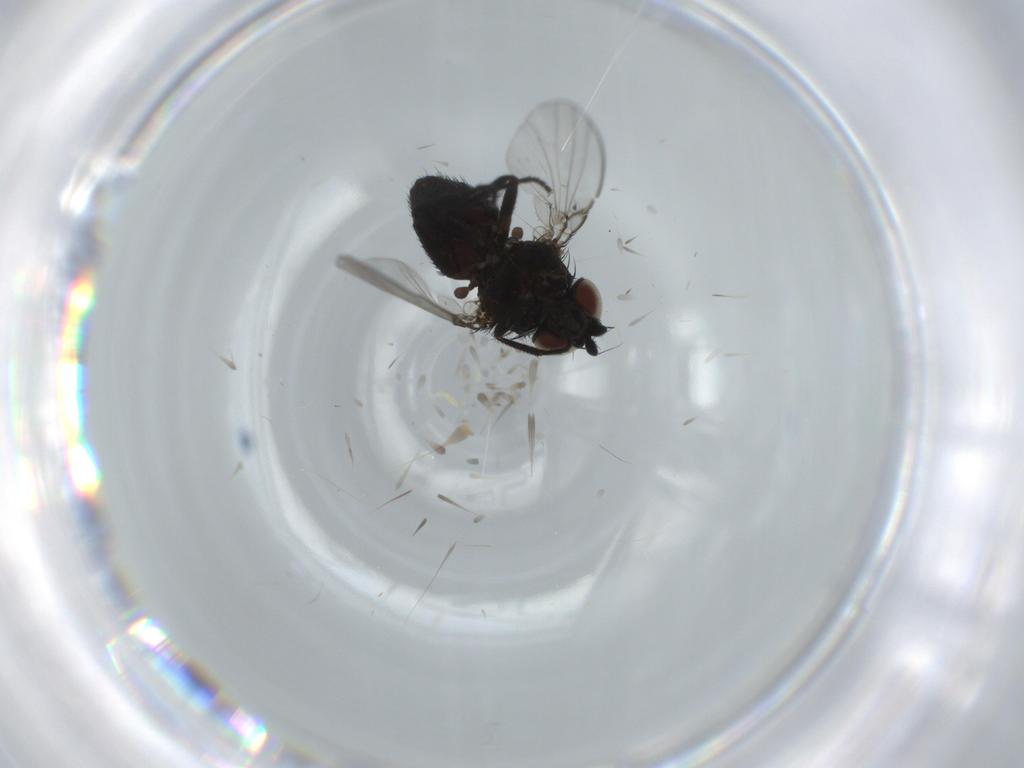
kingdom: Animalia
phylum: Arthropoda
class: Insecta
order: Diptera
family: Milichiidae
